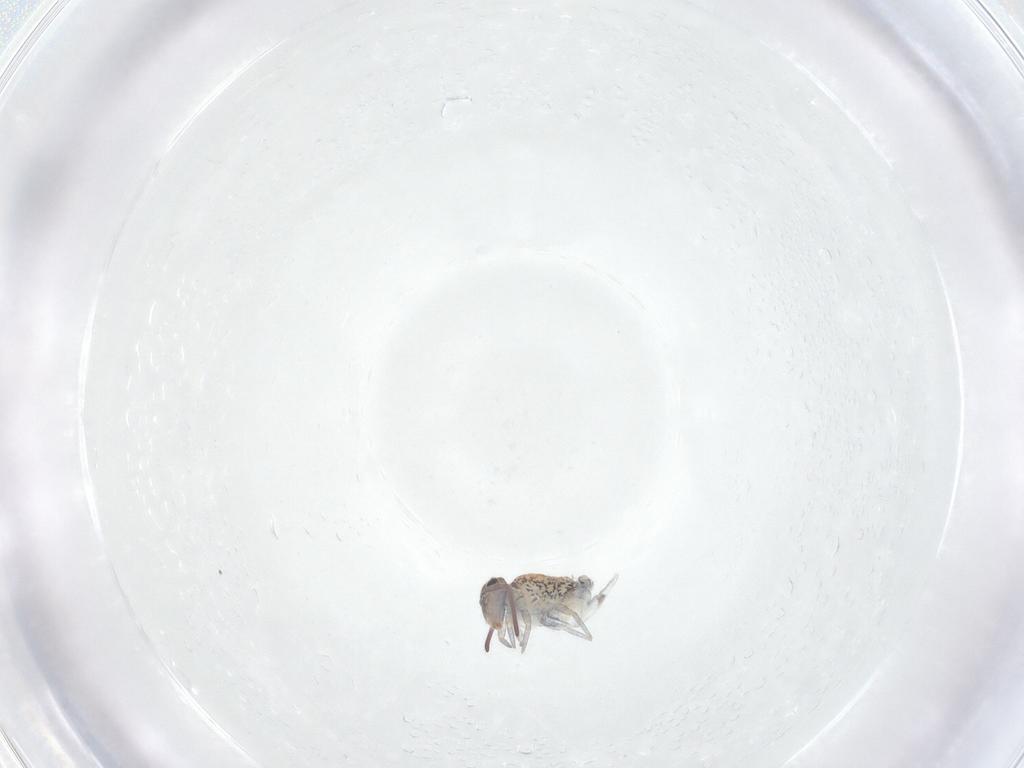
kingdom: Animalia
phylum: Arthropoda
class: Collembola
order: Symphypleona
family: Bourletiellidae
